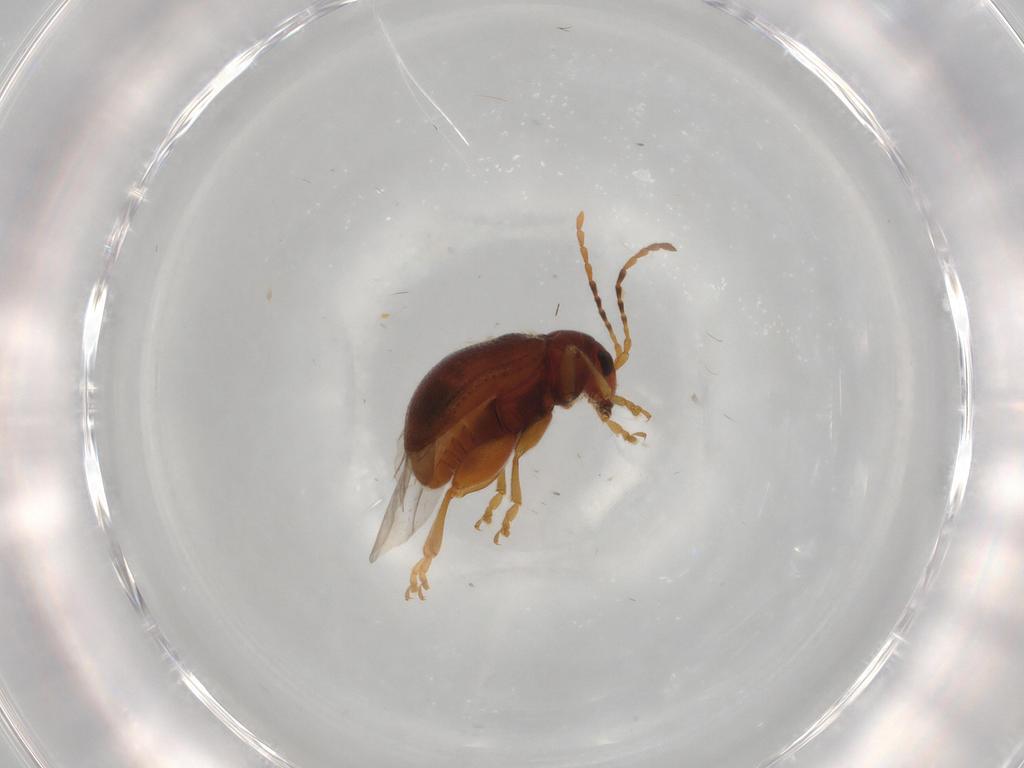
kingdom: Animalia
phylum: Arthropoda
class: Insecta
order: Coleoptera
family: Chrysomelidae
